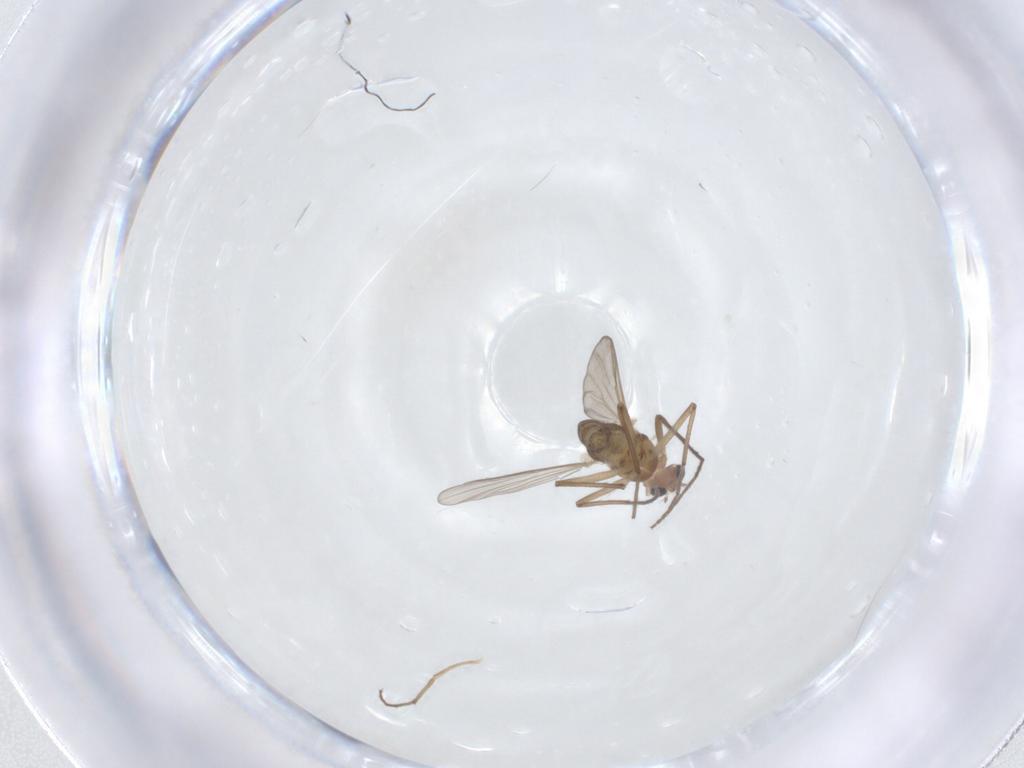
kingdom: Animalia
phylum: Arthropoda
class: Insecta
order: Diptera
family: Chironomidae
